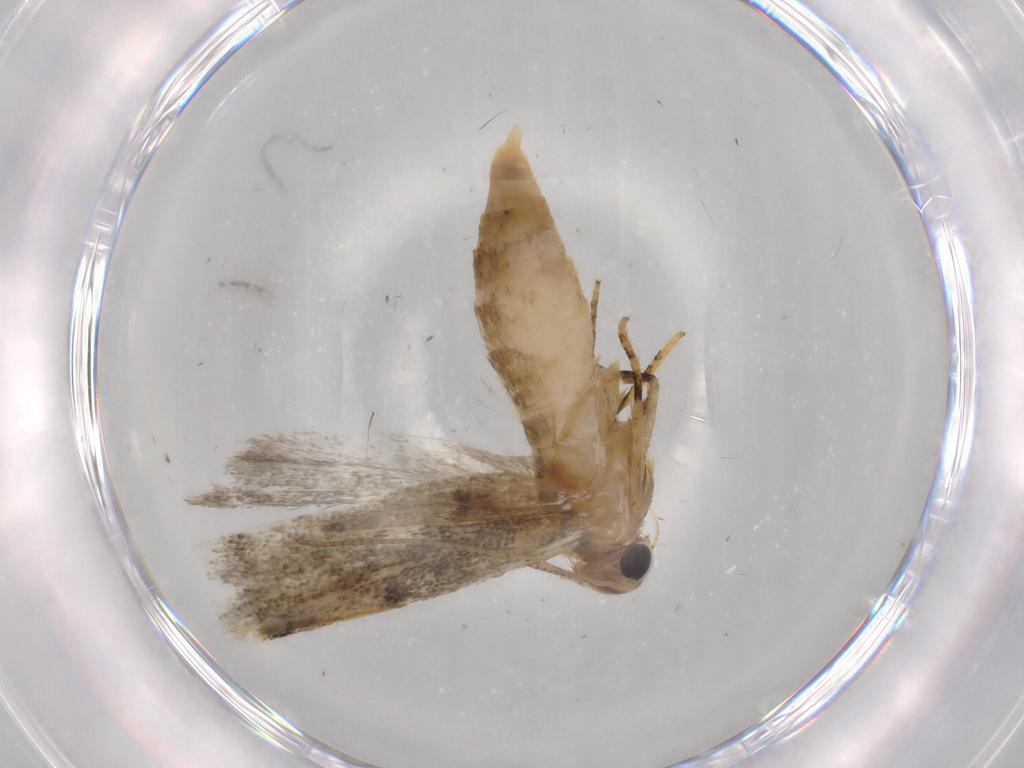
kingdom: Animalia
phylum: Arthropoda
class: Insecta
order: Lepidoptera
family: Gelechiidae
